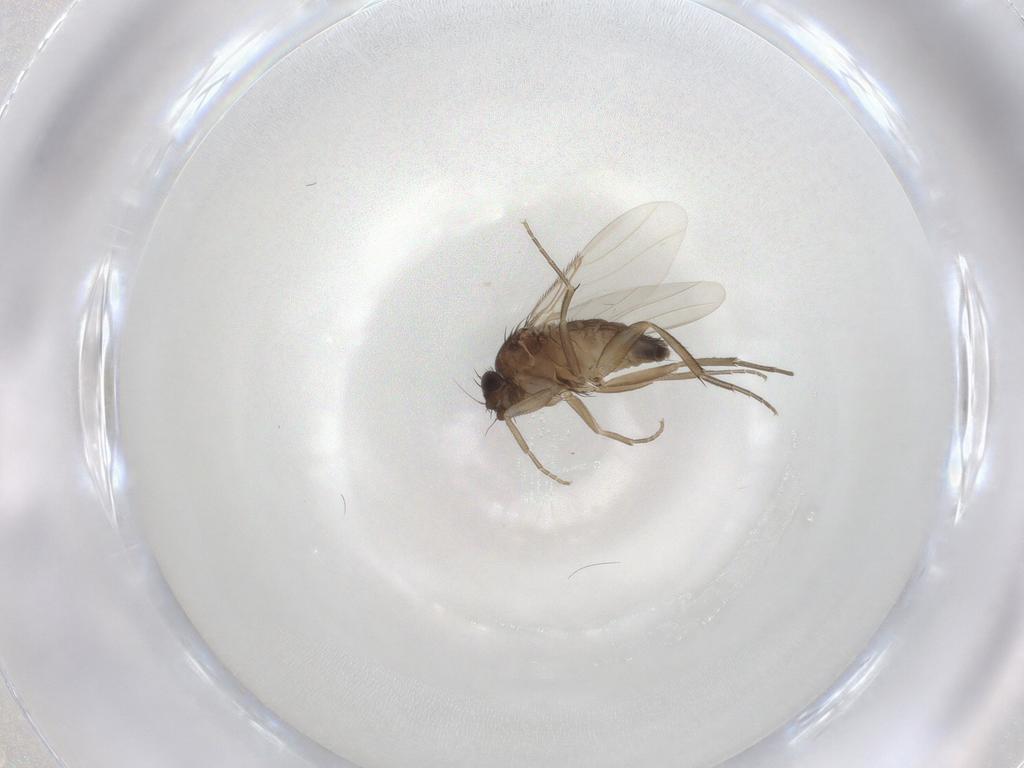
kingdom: Animalia
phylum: Arthropoda
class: Insecta
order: Diptera
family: Phoridae
